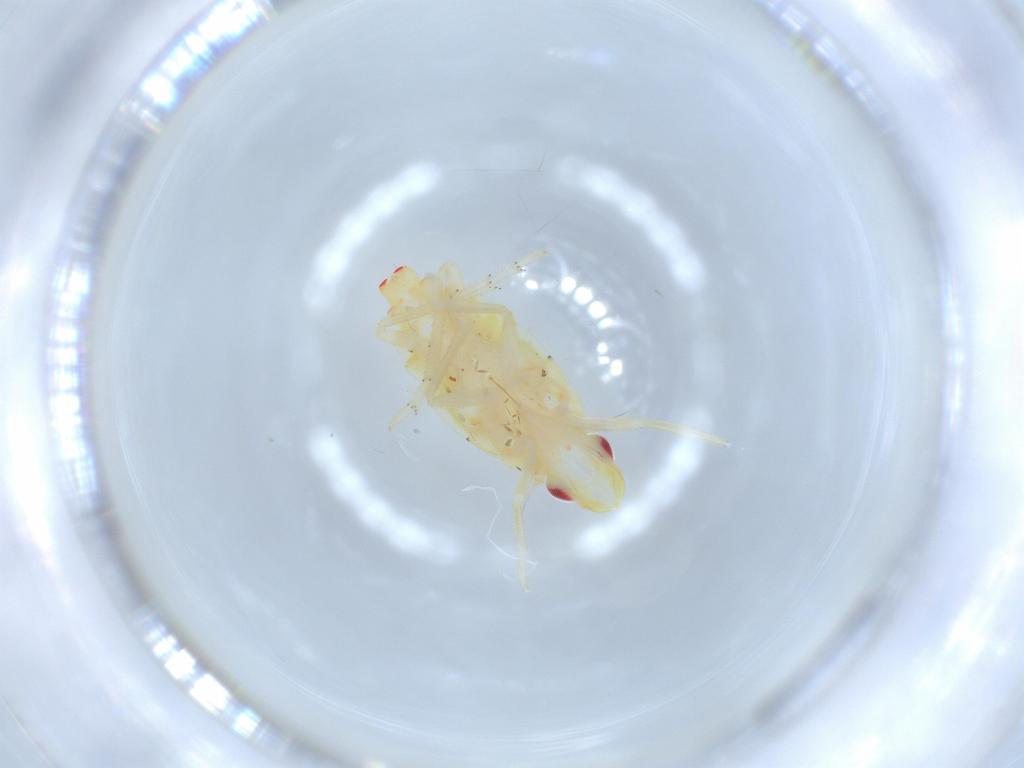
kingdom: Animalia
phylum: Arthropoda
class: Insecta
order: Hemiptera
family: Tropiduchidae
